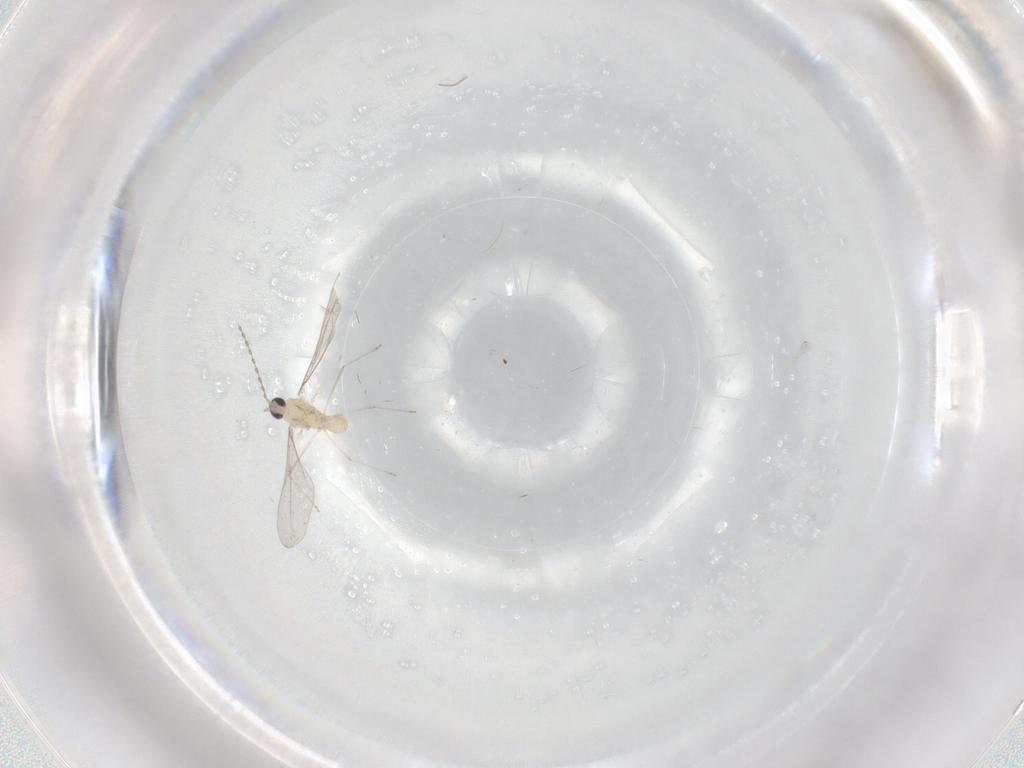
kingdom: Animalia
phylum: Arthropoda
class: Insecta
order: Diptera
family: Cecidomyiidae
